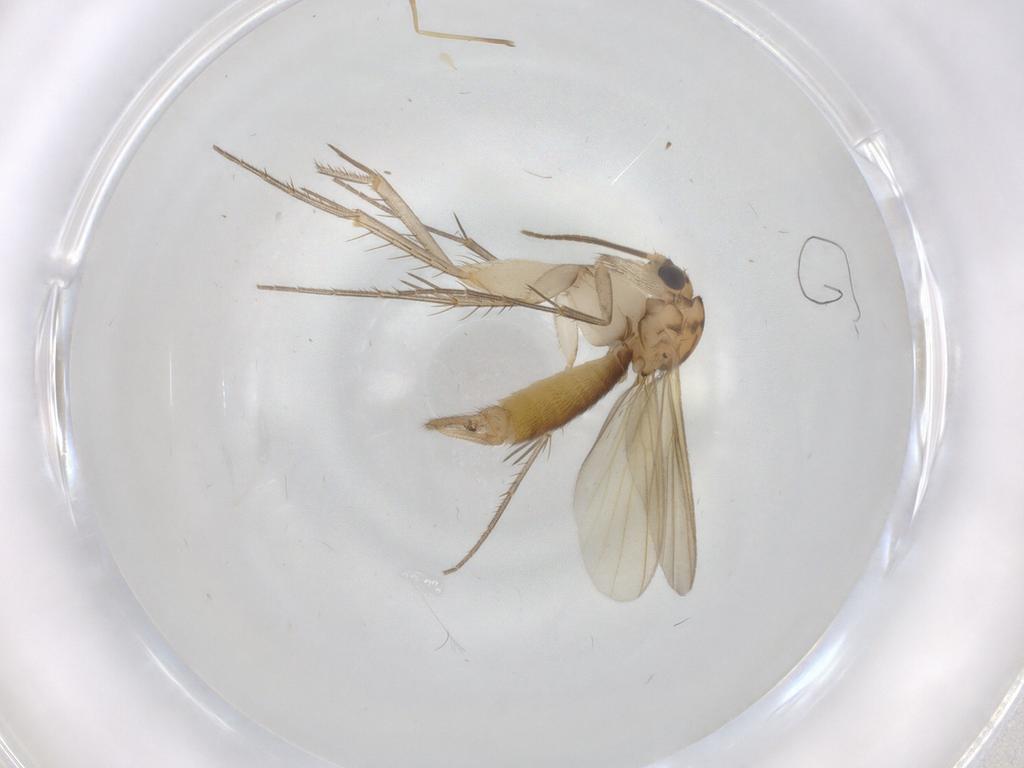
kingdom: Animalia
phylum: Arthropoda
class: Insecta
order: Diptera
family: Mycetophilidae
